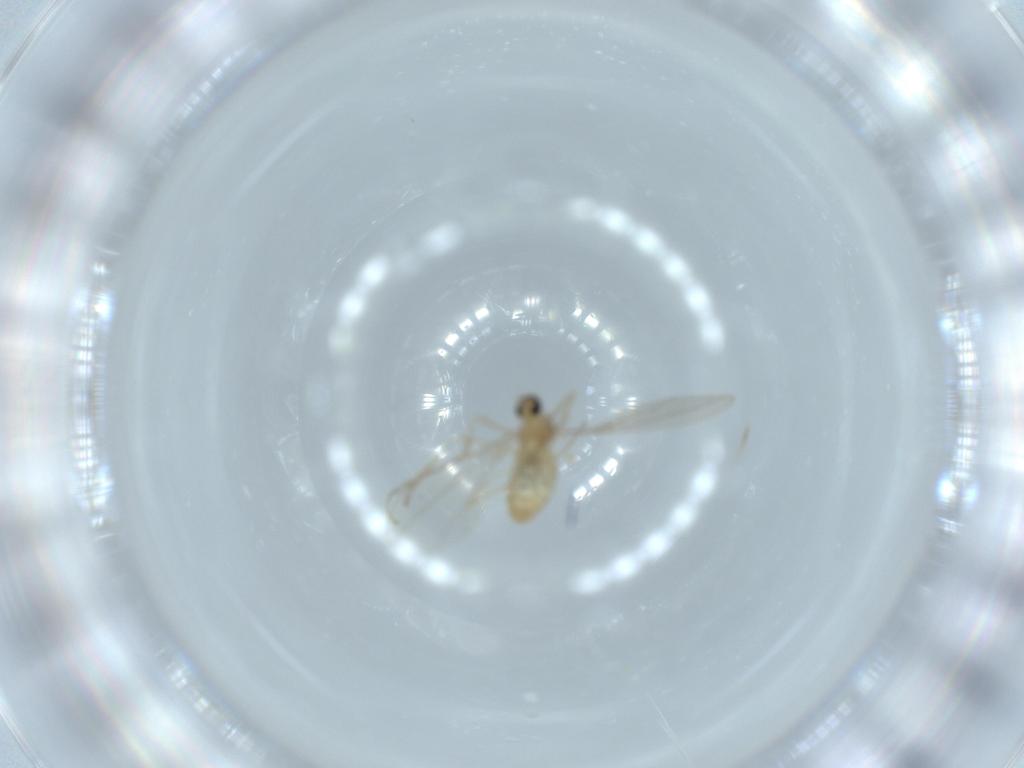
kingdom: Animalia
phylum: Arthropoda
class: Insecta
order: Diptera
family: Cecidomyiidae
